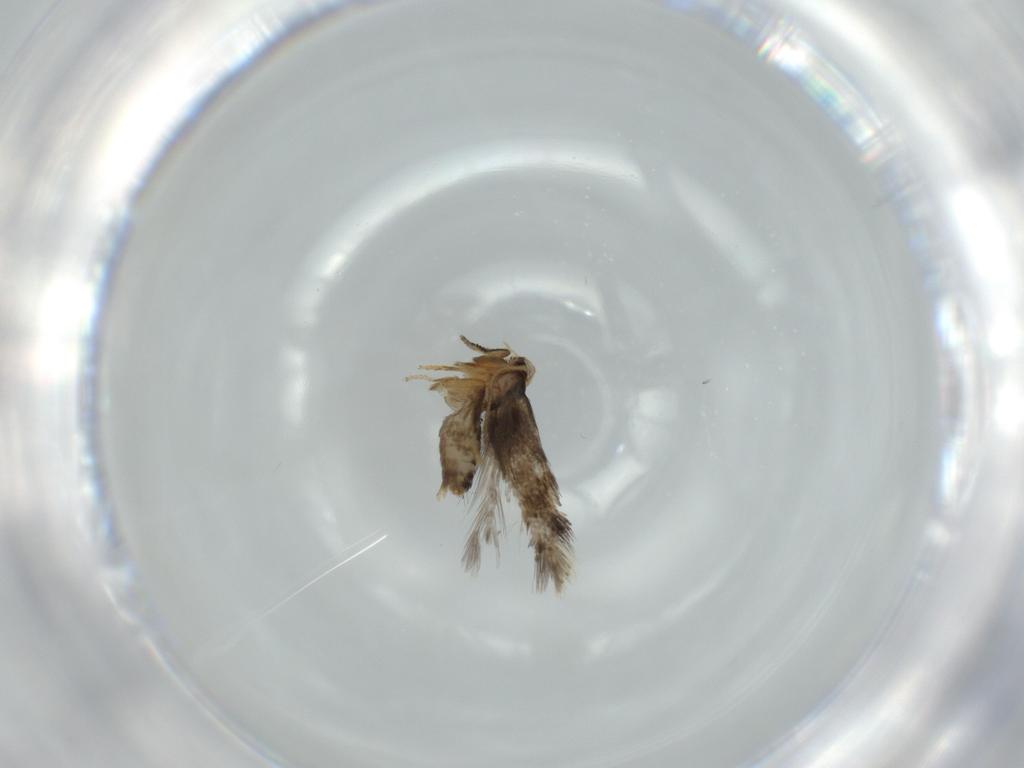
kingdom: Animalia
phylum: Arthropoda
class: Insecta
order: Lepidoptera
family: Nepticulidae
